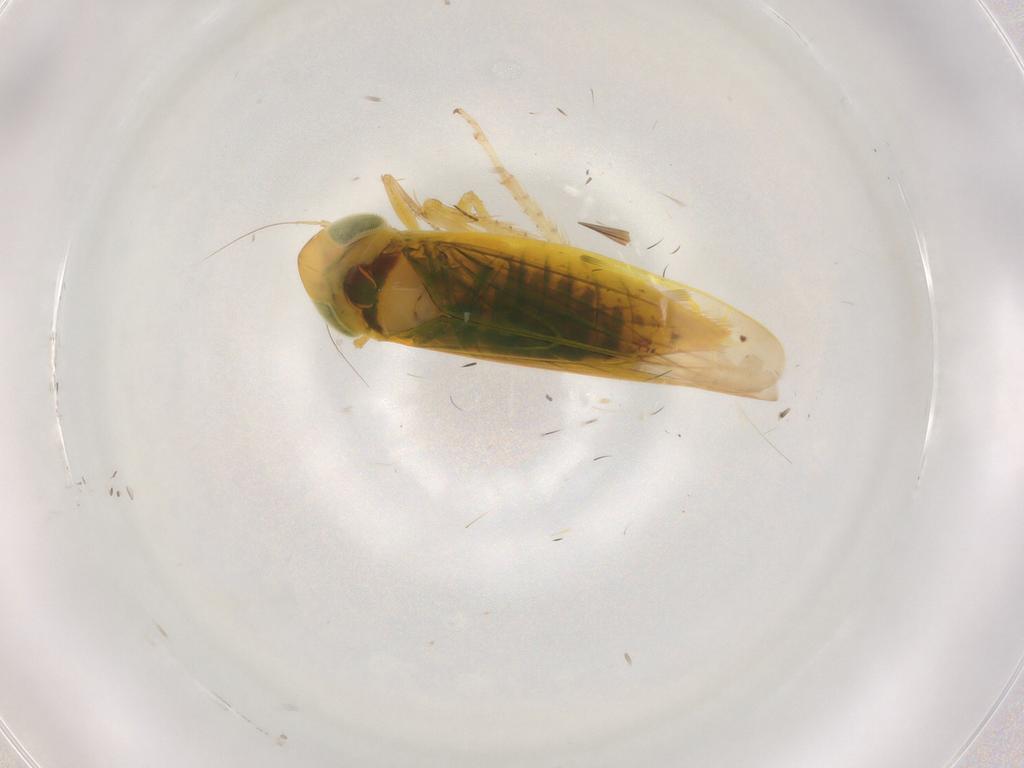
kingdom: Animalia
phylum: Arthropoda
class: Insecta
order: Hemiptera
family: Cicadellidae
